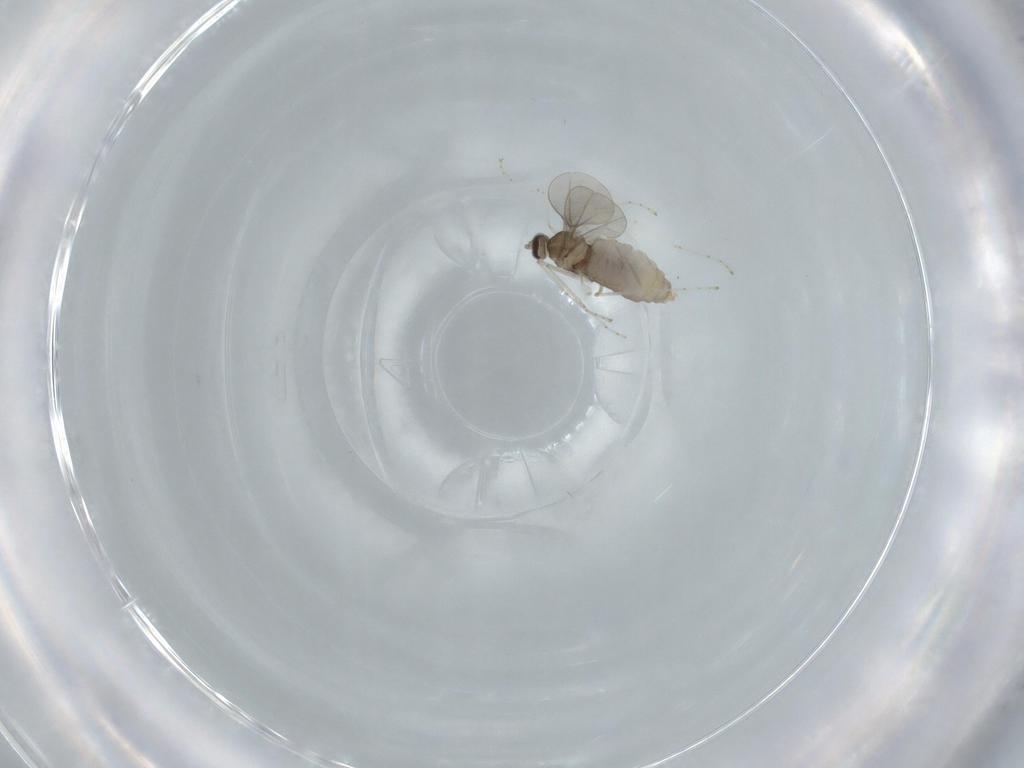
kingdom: Animalia
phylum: Arthropoda
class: Insecta
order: Diptera
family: Cecidomyiidae
